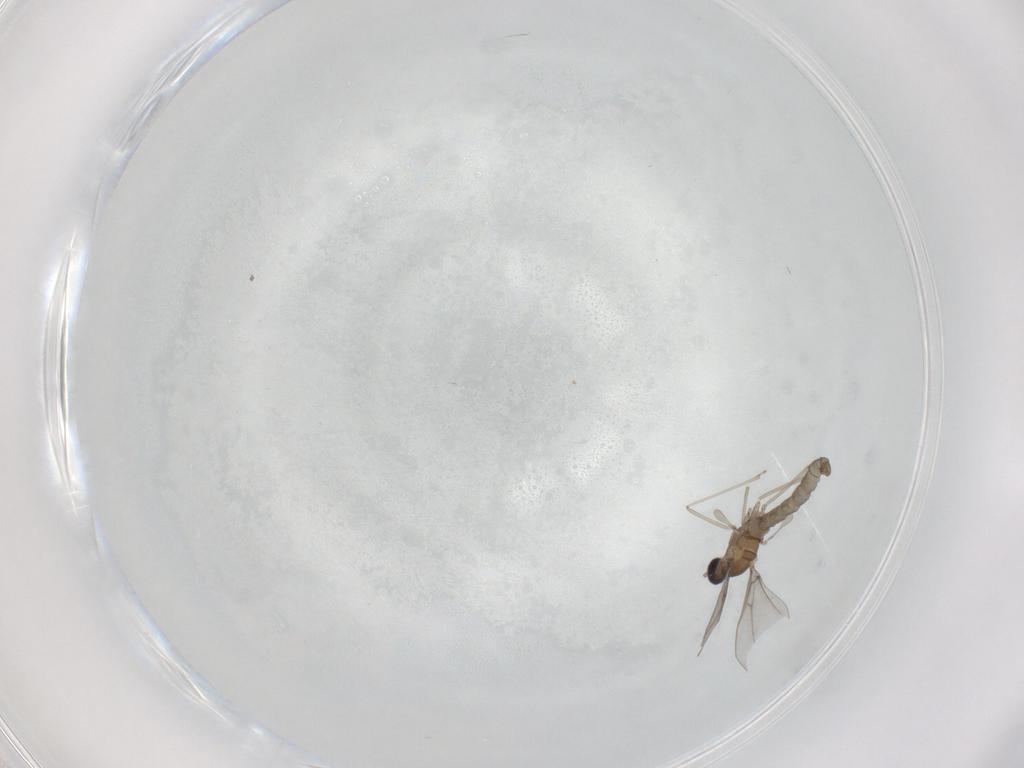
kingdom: Animalia
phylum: Arthropoda
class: Insecta
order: Diptera
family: Cecidomyiidae
